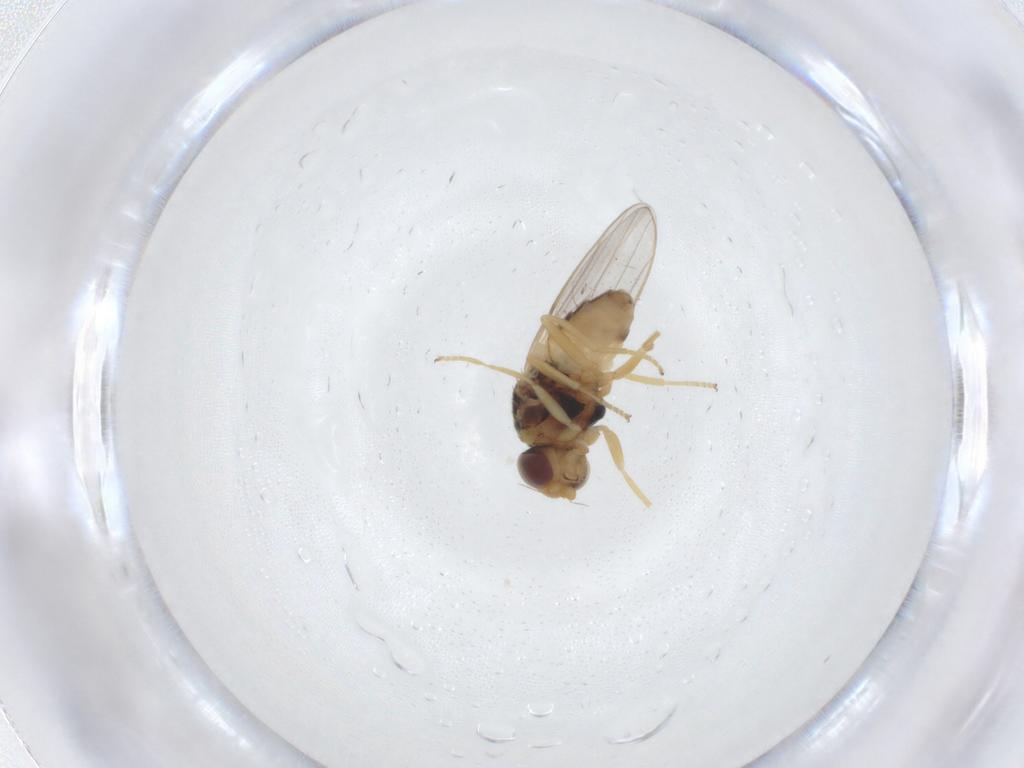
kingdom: Animalia
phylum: Arthropoda
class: Insecta
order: Diptera
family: Chloropidae
